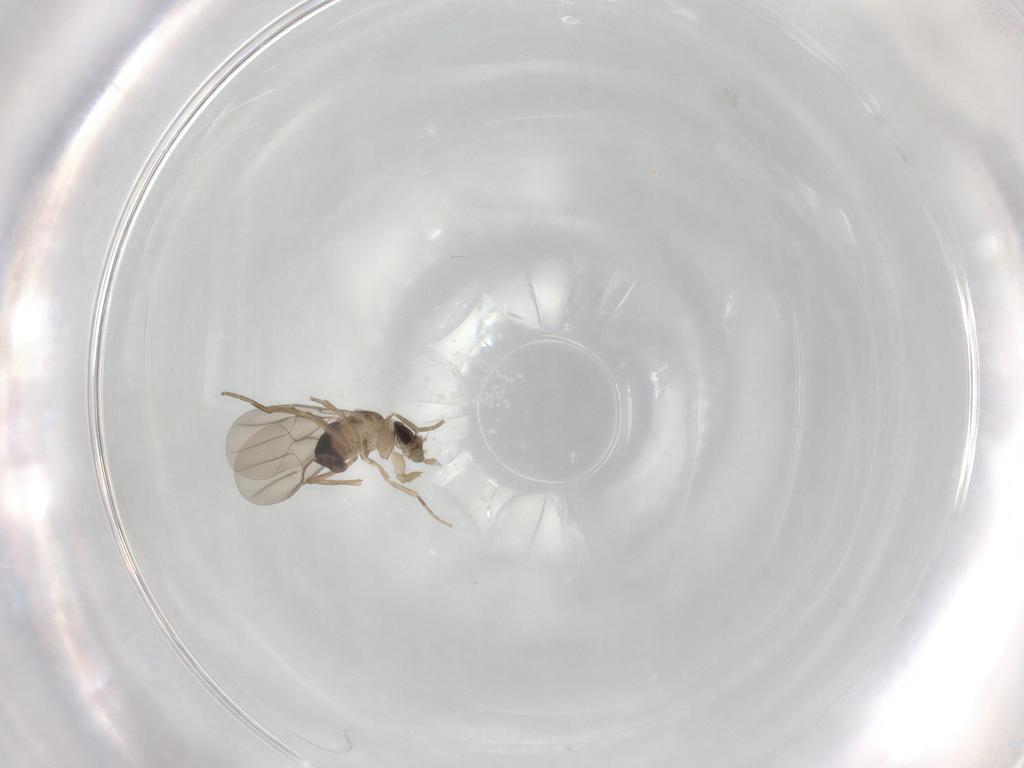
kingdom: Animalia
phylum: Arthropoda
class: Insecta
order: Diptera
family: Phoridae
